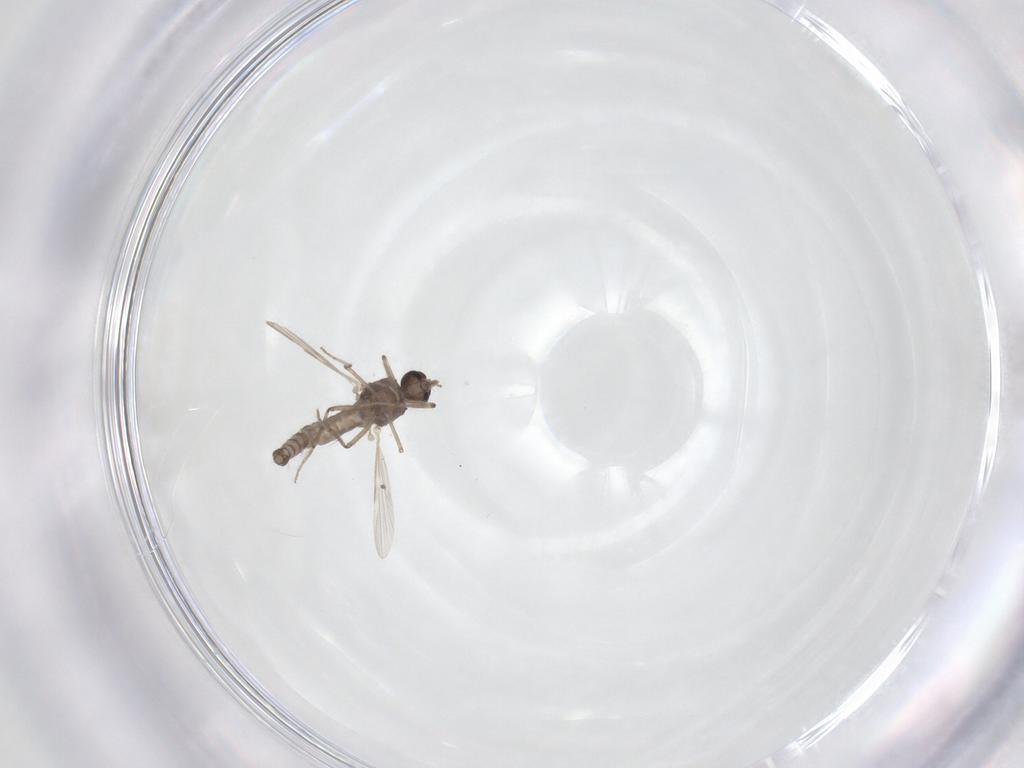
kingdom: Animalia
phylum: Arthropoda
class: Insecta
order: Diptera
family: Ceratopogonidae
